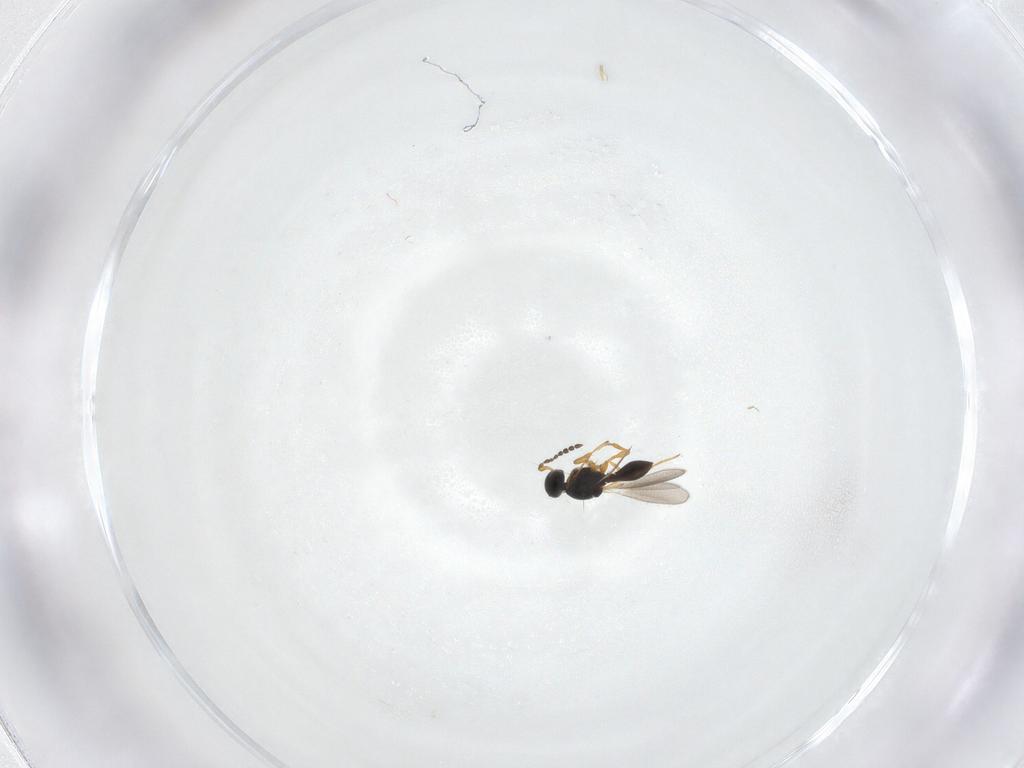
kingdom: Animalia
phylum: Arthropoda
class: Insecta
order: Hymenoptera
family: Platygastridae
